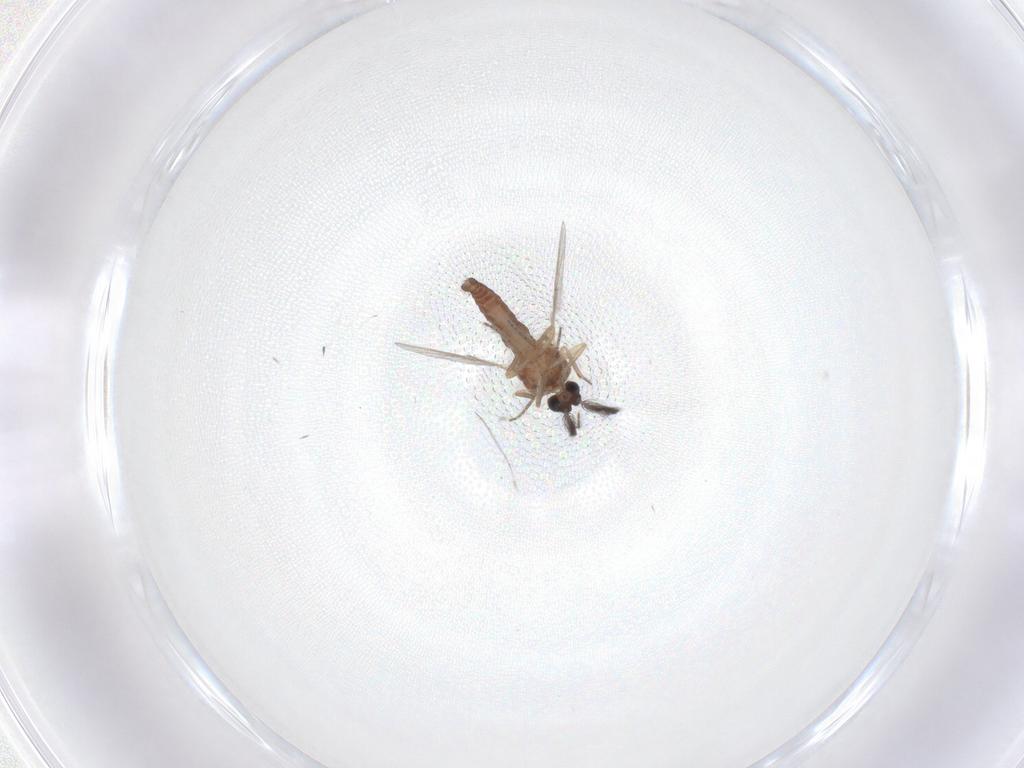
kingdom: Animalia
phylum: Arthropoda
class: Insecta
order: Diptera
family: Ceratopogonidae
